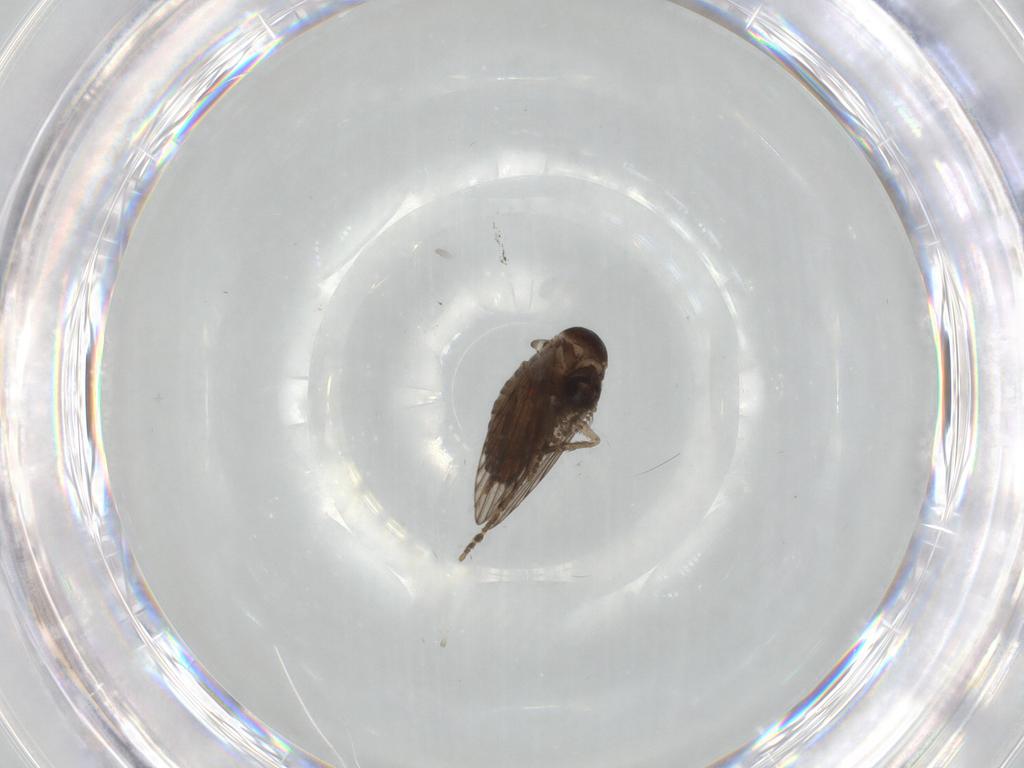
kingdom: Animalia
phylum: Arthropoda
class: Insecta
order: Diptera
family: Psychodidae
